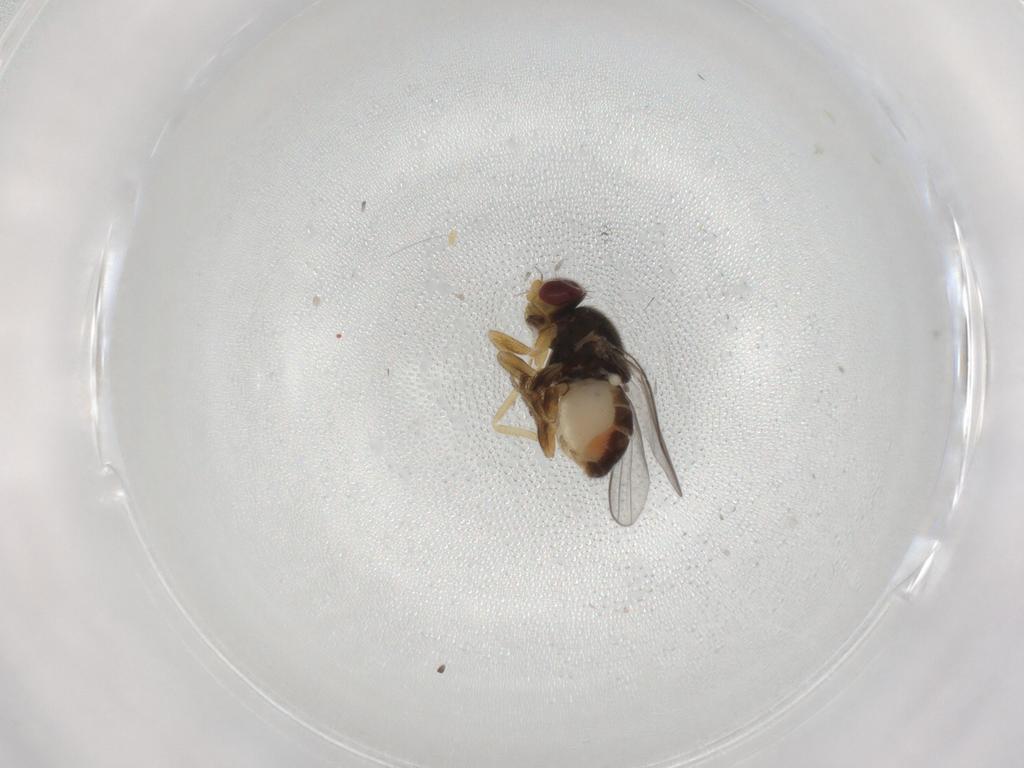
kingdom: Animalia
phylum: Arthropoda
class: Insecta
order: Diptera
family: Chloropidae
